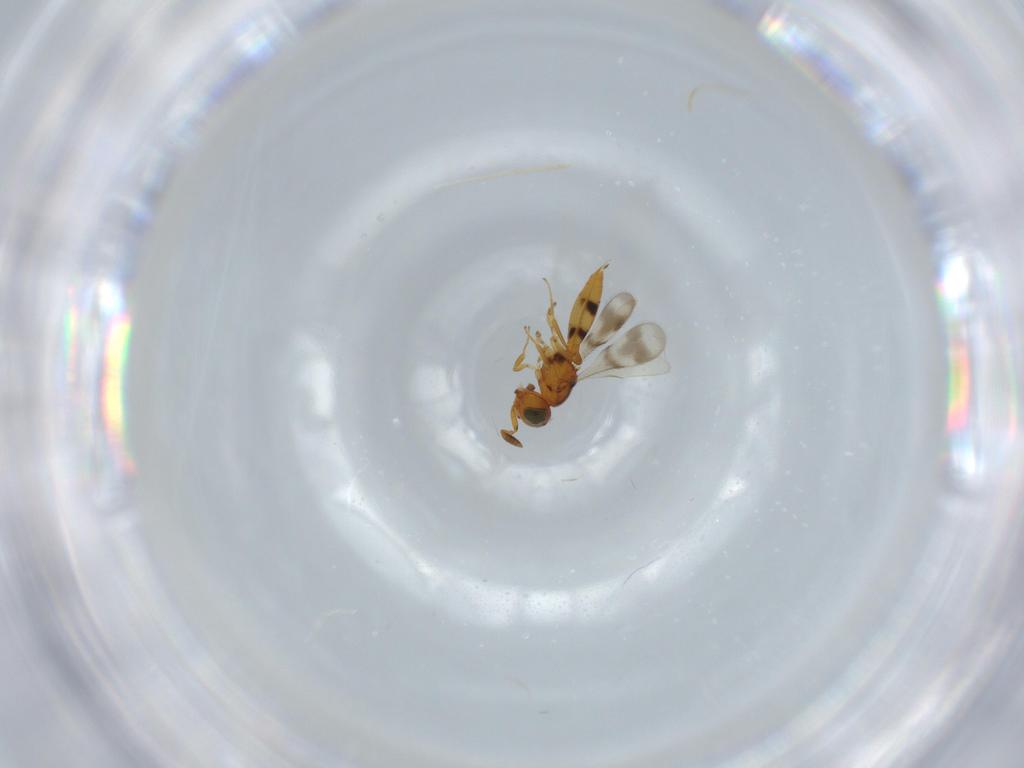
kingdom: Animalia
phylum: Arthropoda
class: Insecta
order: Hymenoptera
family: Scelionidae
